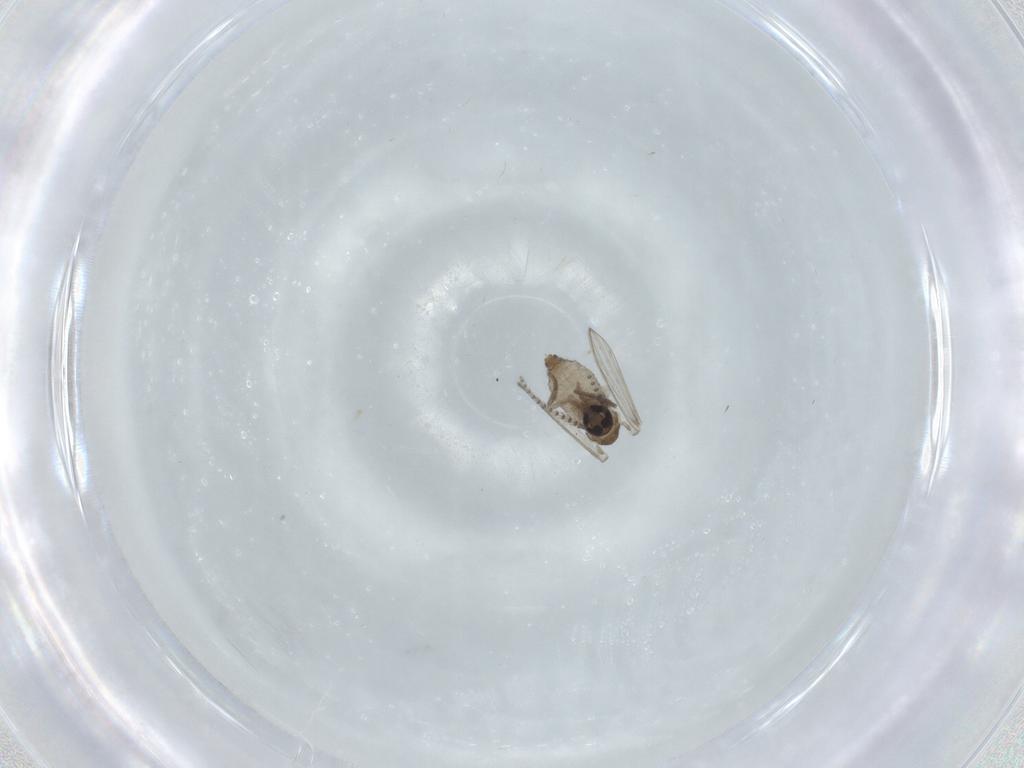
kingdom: Animalia
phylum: Arthropoda
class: Insecta
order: Diptera
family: Psychodidae
